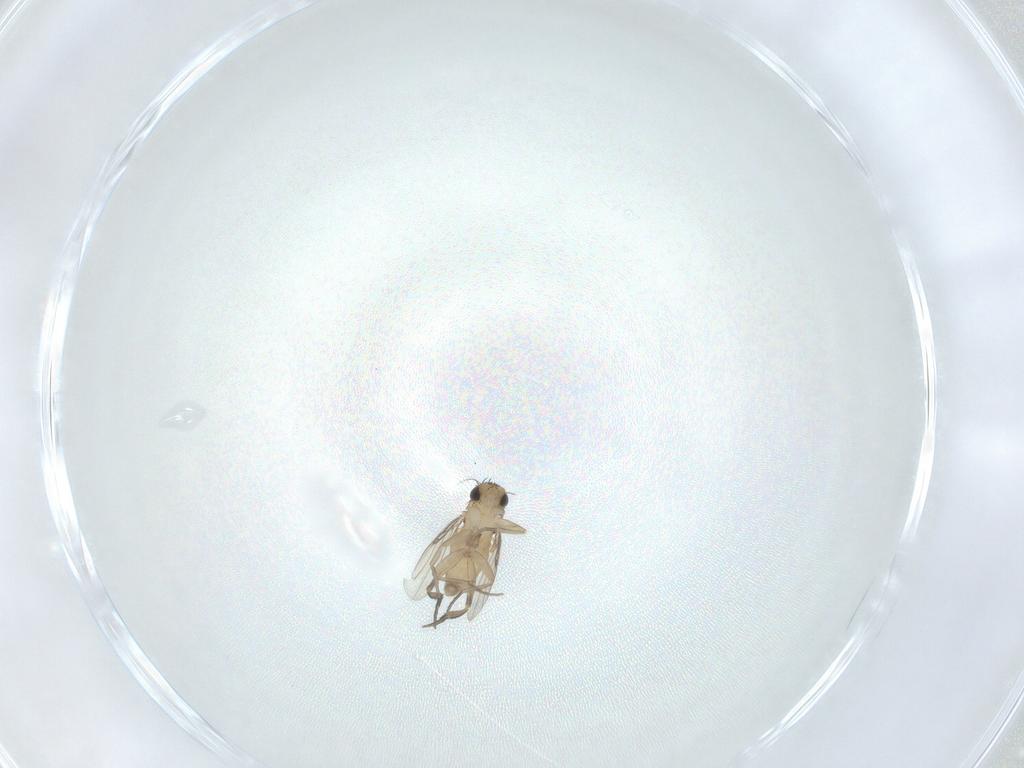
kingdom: Animalia
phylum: Arthropoda
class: Insecta
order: Diptera
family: Phoridae
